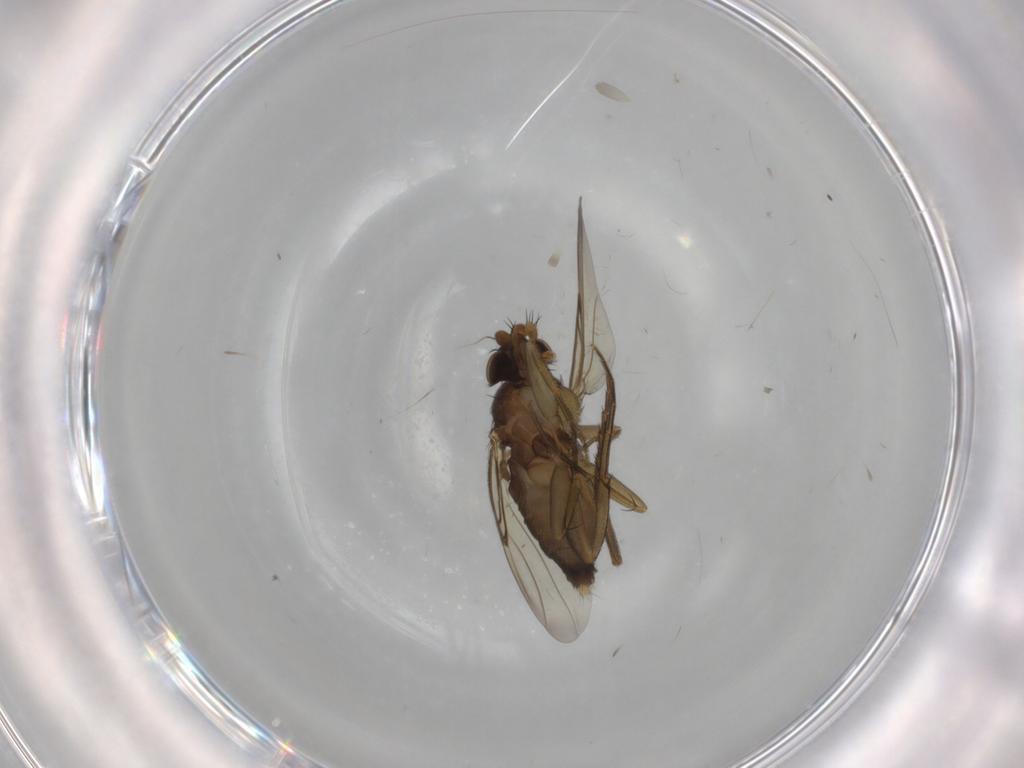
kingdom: Animalia
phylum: Arthropoda
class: Insecta
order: Diptera
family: Phoridae
